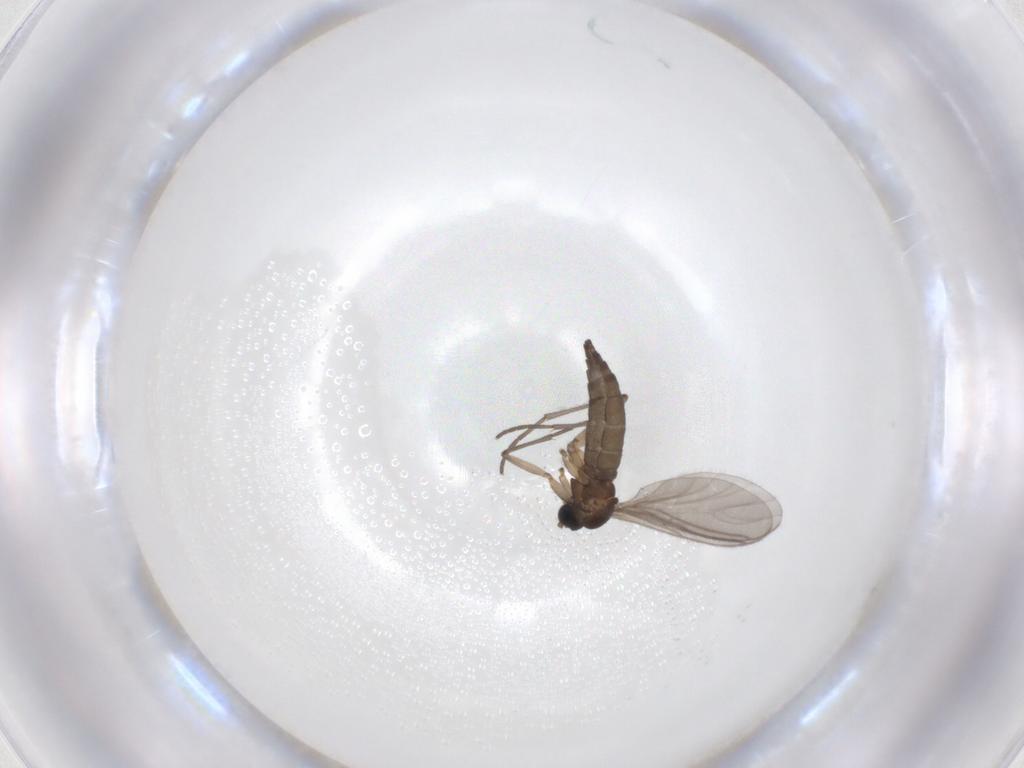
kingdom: Animalia
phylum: Arthropoda
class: Insecta
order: Diptera
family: Sciaridae
